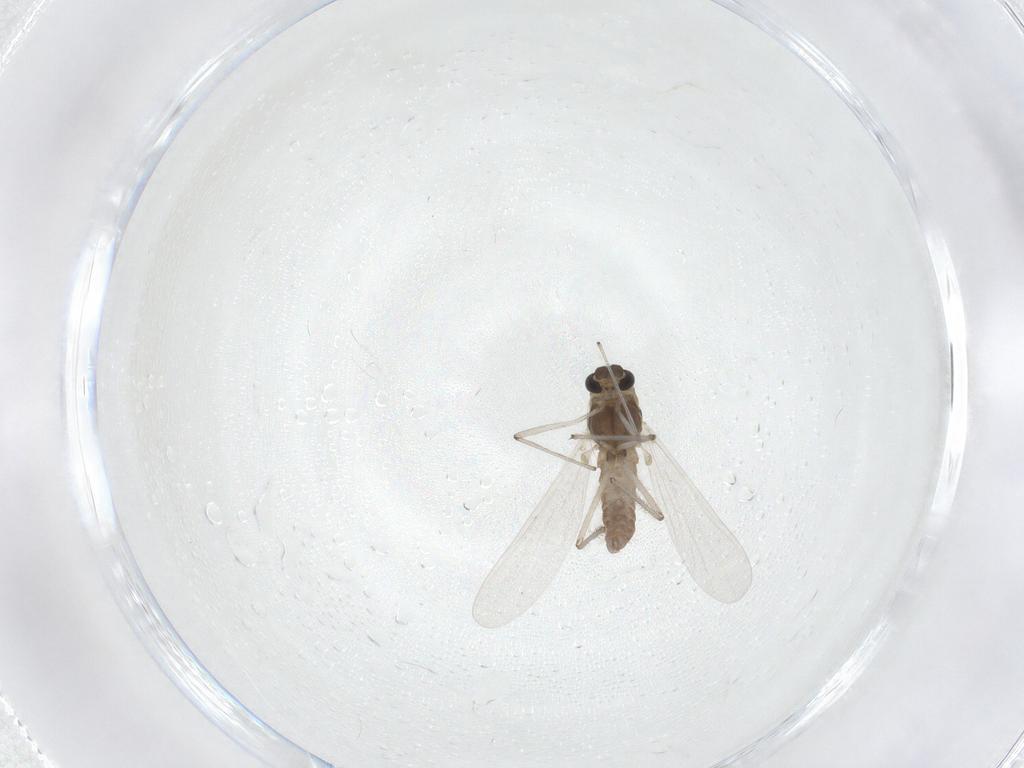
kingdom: Animalia
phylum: Arthropoda
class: Insecta
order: Diptera
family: Chironomidae
